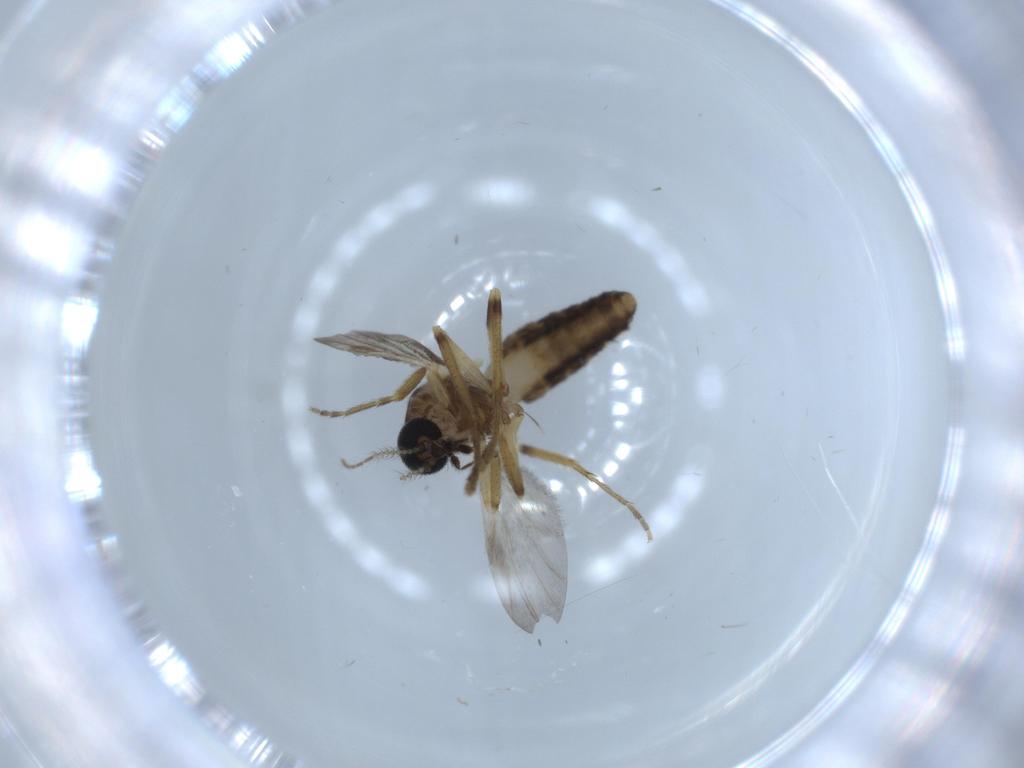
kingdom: Animalia
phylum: Arthropoda
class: Insecta
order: Diptera
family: Ceratopogonidae
